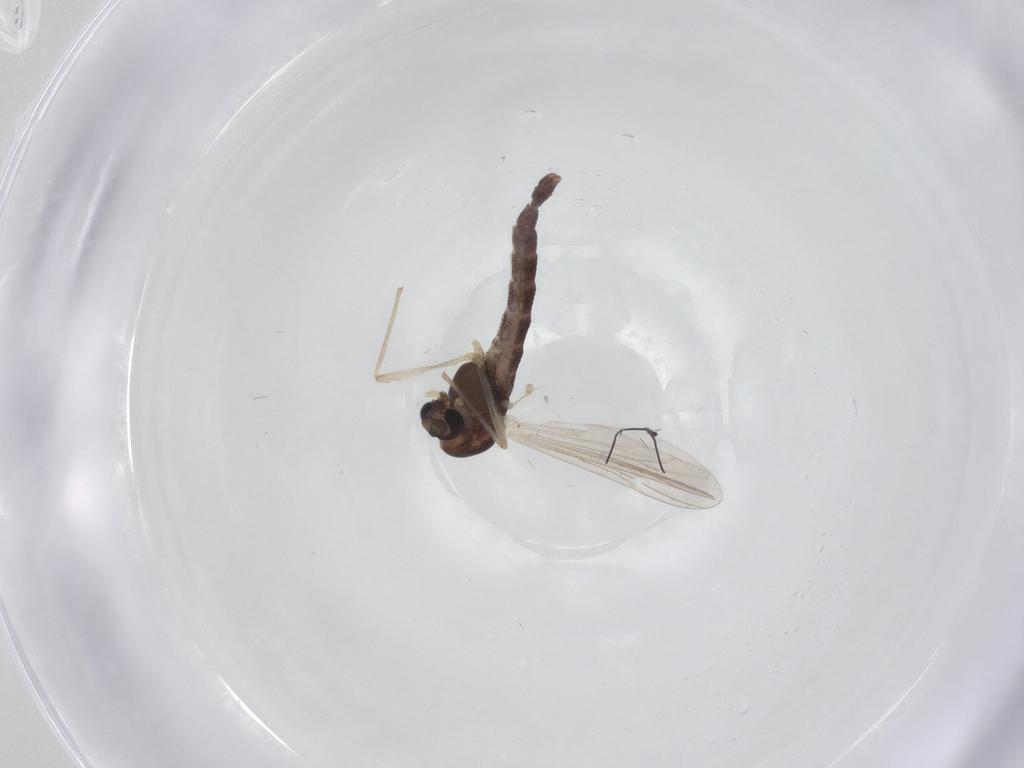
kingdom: Animalia
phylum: Arthropoda
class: Insecta
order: Diptera
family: Chironomidae
